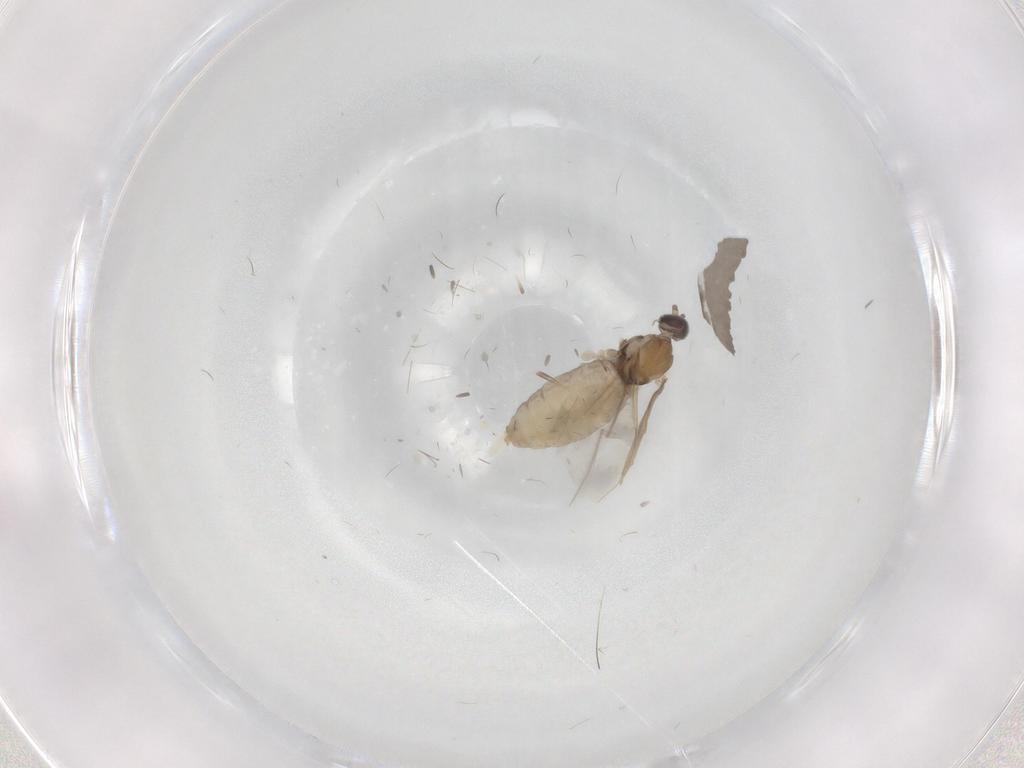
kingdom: Animalia
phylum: Arthropoda
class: Insecta
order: Diptera
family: Cecidomyiidae
